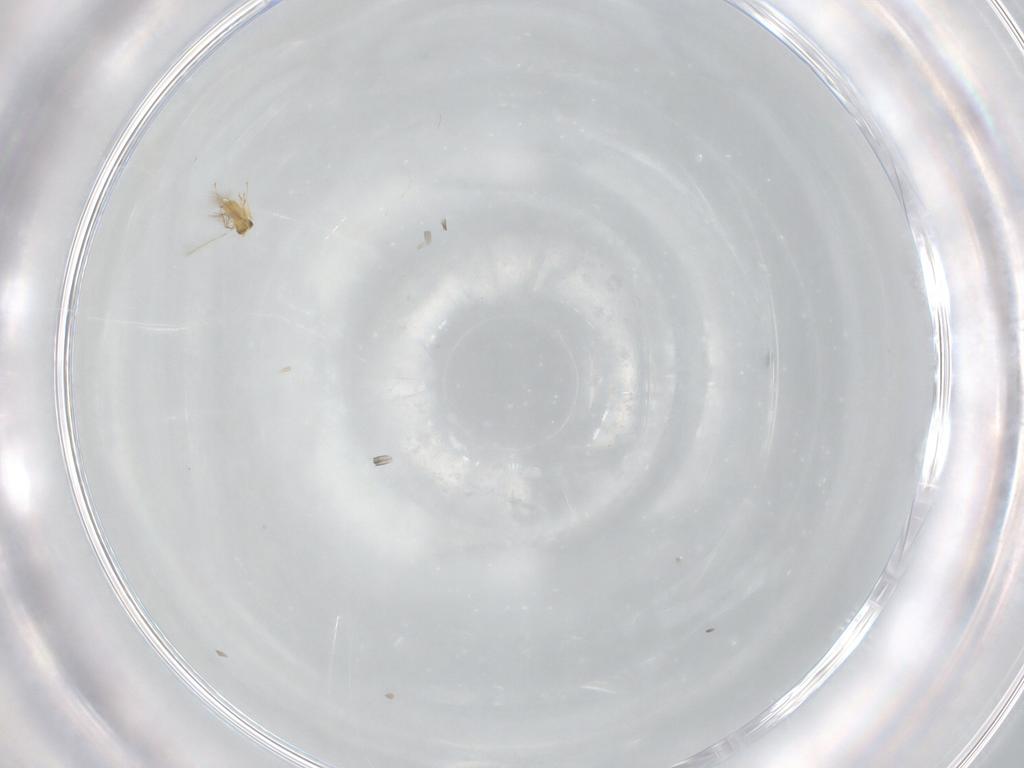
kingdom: Animalia
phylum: Arthropoda
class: Insecta
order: Hymenoptera
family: Mymaridae
